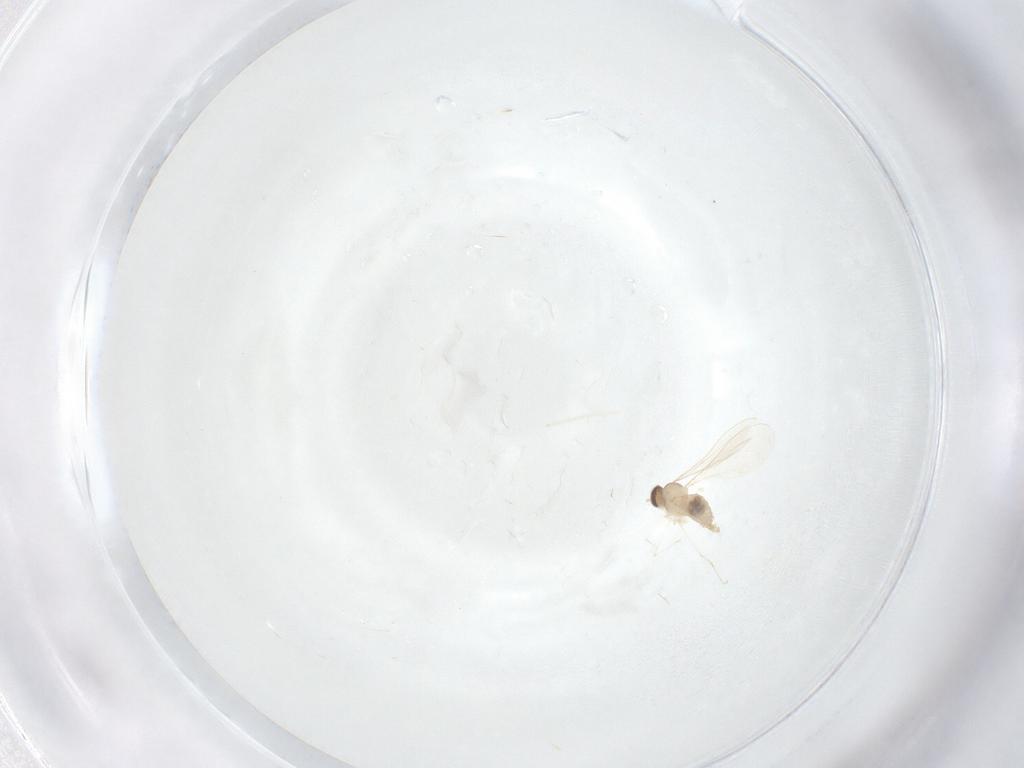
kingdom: Animalia
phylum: Arthropoda
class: Insecta
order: Diptera
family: Cecidomyiidae
